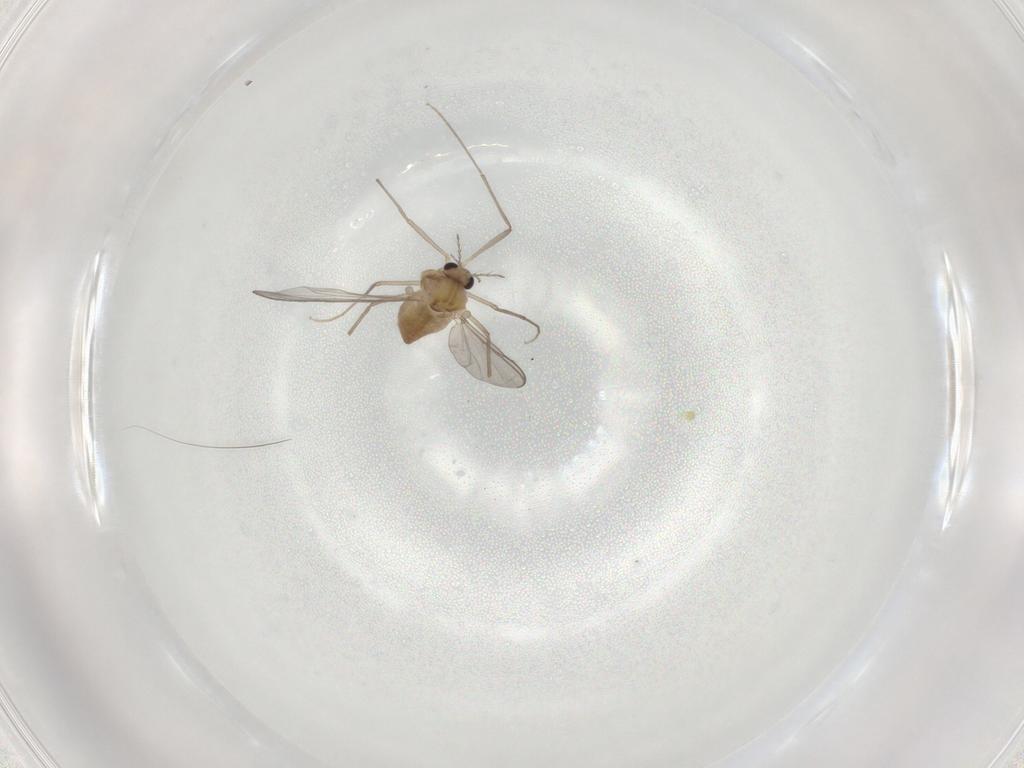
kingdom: Animalia
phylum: Arthropoda
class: Insecta
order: Diptera
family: Chironomidae
